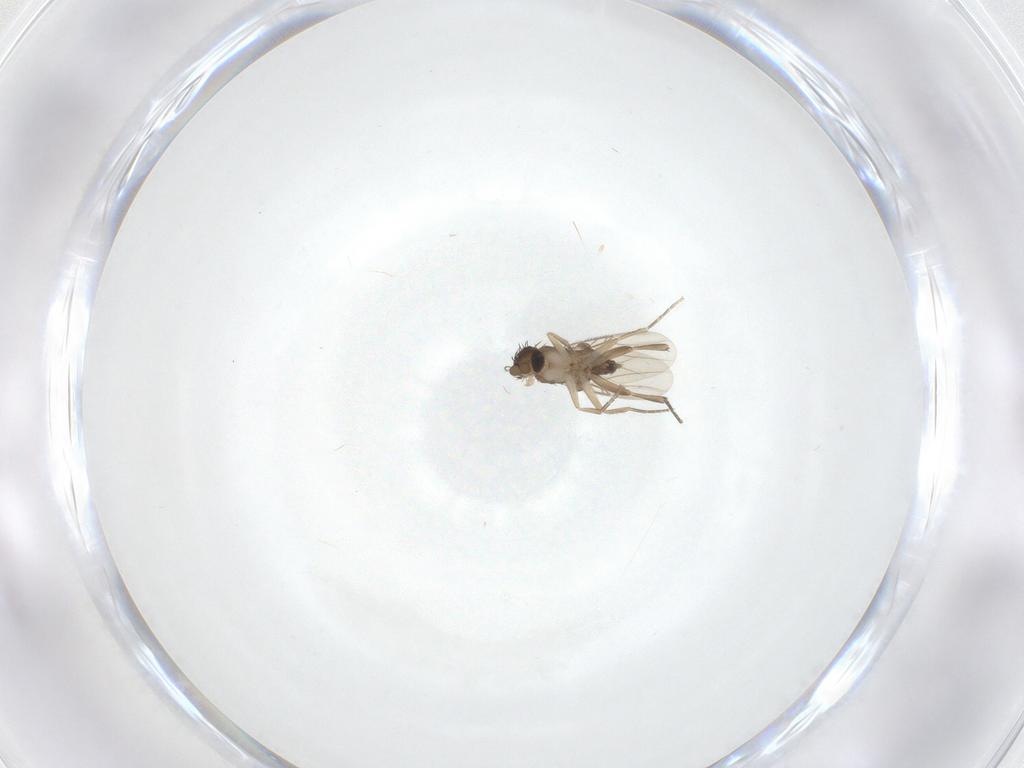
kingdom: Animalia
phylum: Arthropoda
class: Insecta
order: Diptera
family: Phoridae
